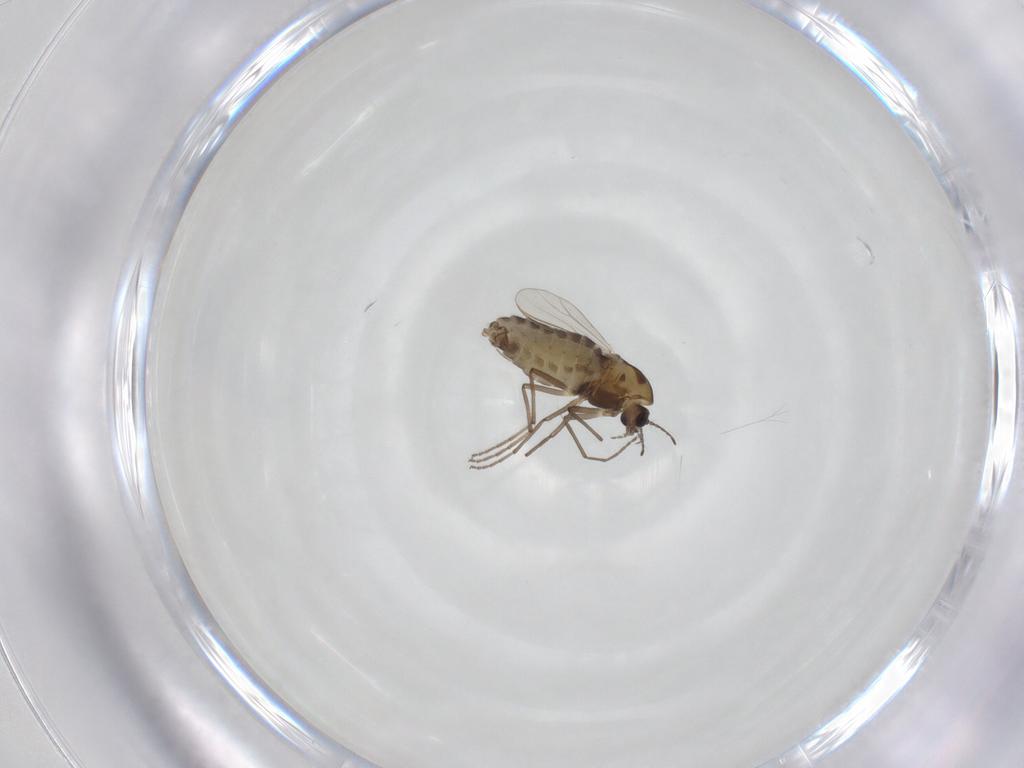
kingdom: Animalia
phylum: Arthropoda
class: Insecta
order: Diptera
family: Chironomidae
